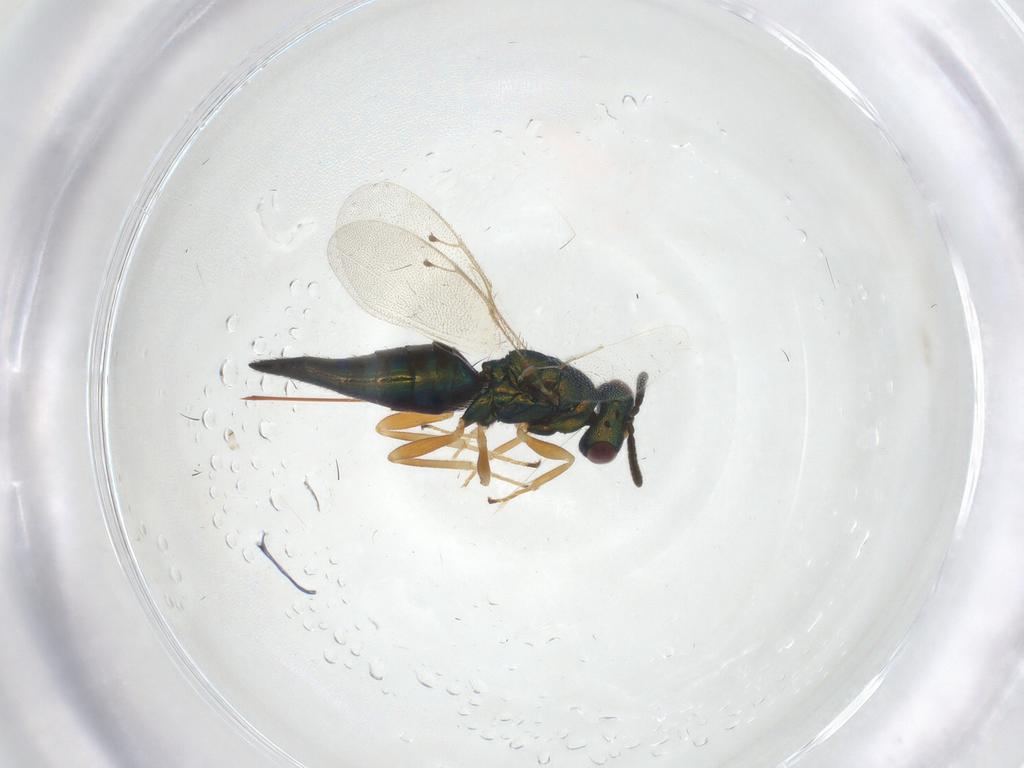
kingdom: Animalia
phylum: Arthropoda
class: Insecta
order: Hymenoptera
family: Pteromalidae
